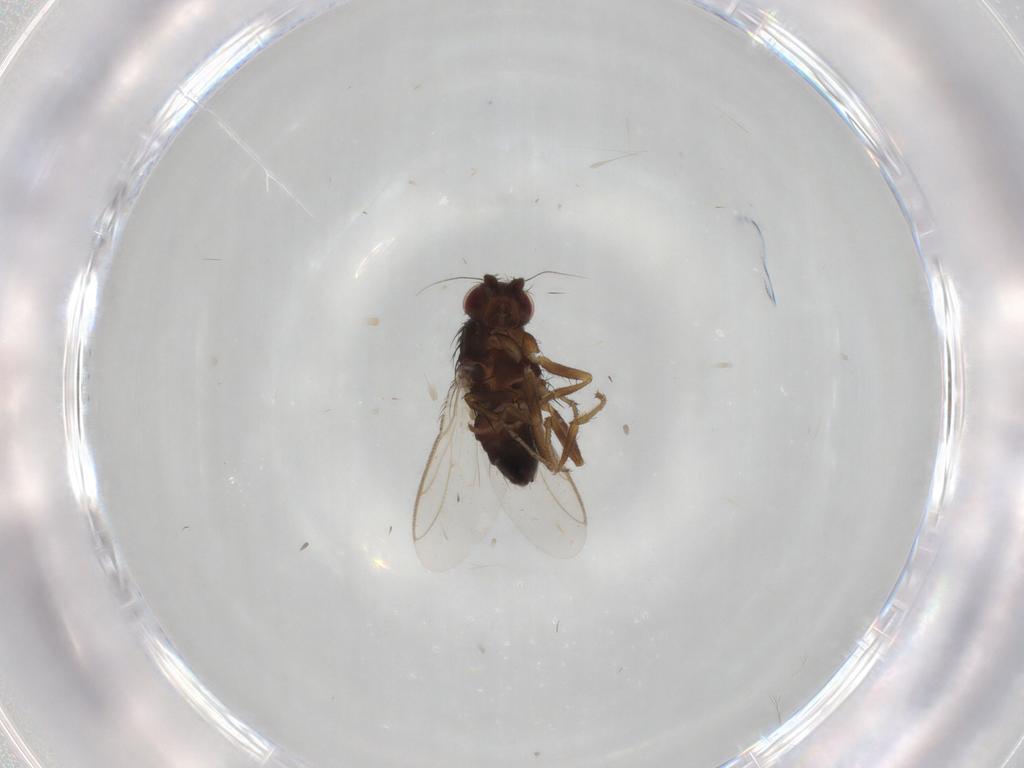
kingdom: Animalia
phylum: Arthropoda
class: Insecta
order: Diptera
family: Sphaeroceridae
